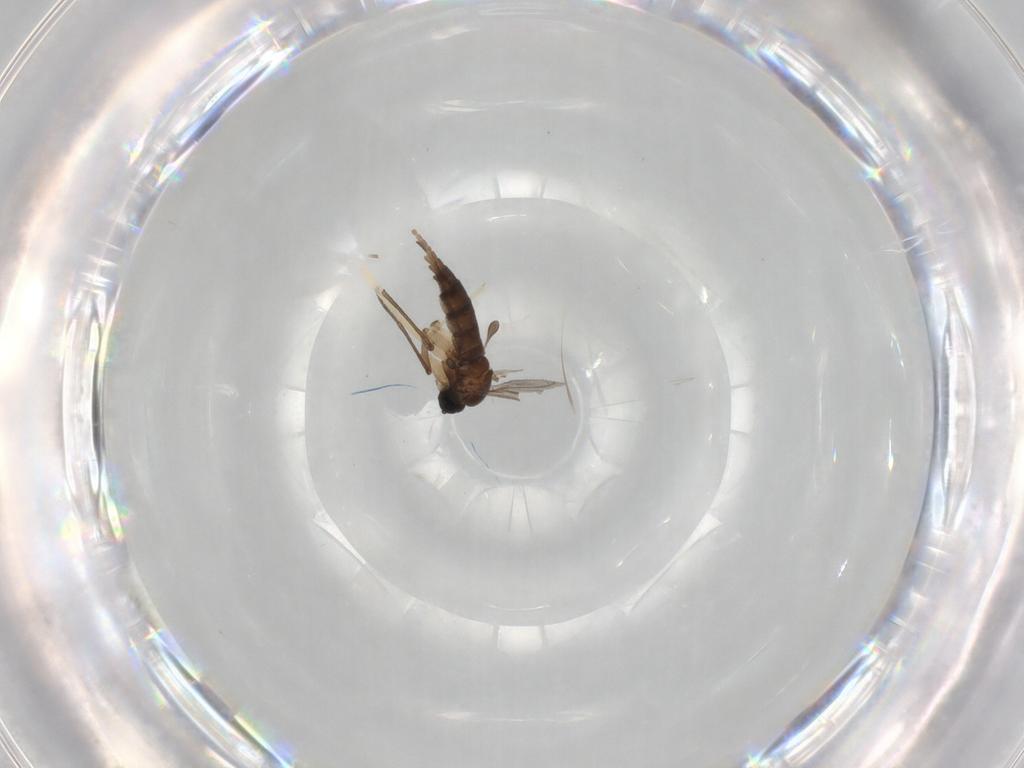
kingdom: Animalia
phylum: Arthropoda
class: Insecta
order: Diptera
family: Chironomidae
